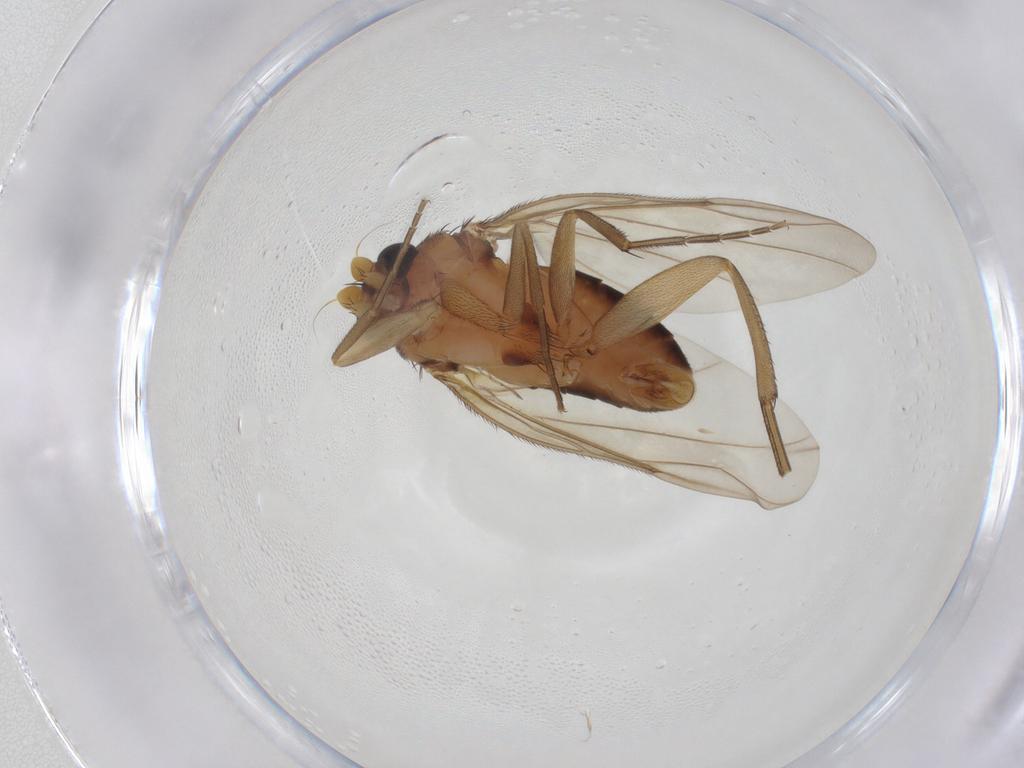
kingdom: Animalia
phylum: Arthropoda
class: Insecta
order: Diptera
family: Phoridae
